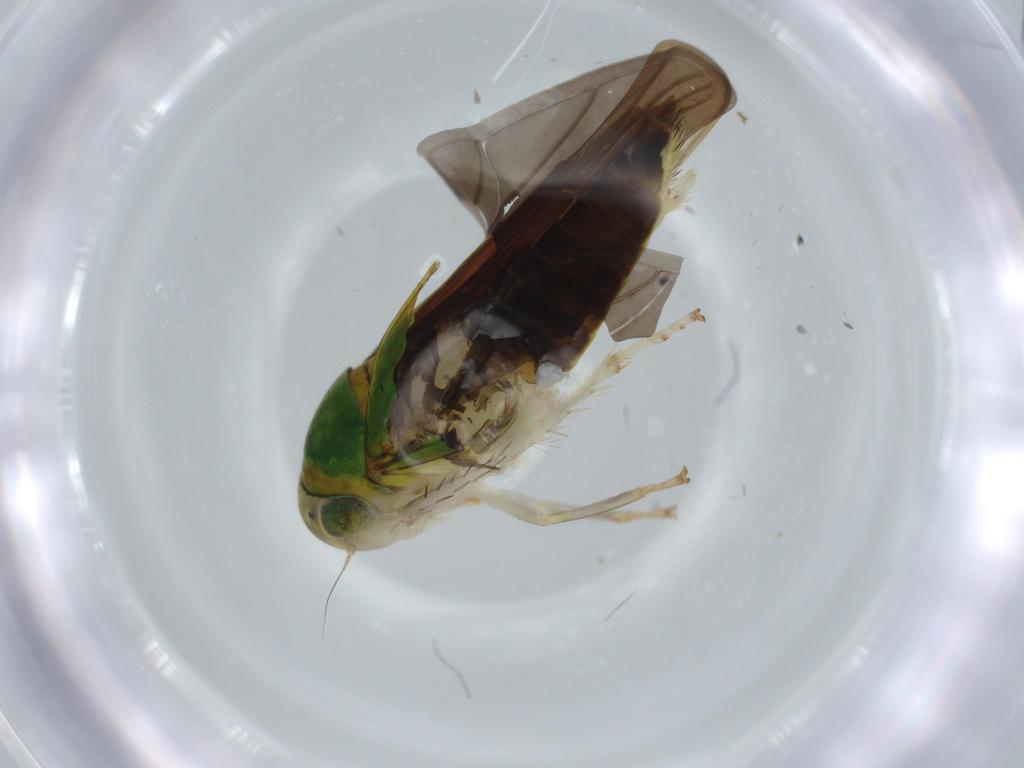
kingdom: Animalia
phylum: Arthropoda
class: Insecta
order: Hemiptera
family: Cicadellidae
